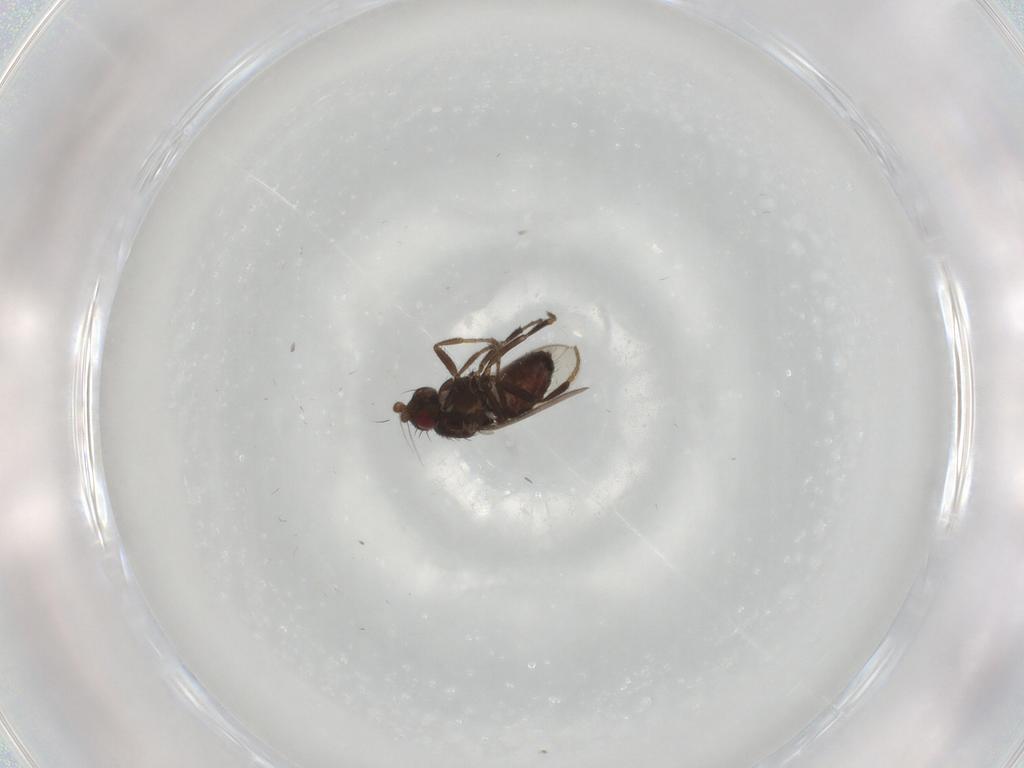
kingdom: Animalia
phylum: Arthropoda
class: Insecta
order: Diptera
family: Sphaeroceridae
